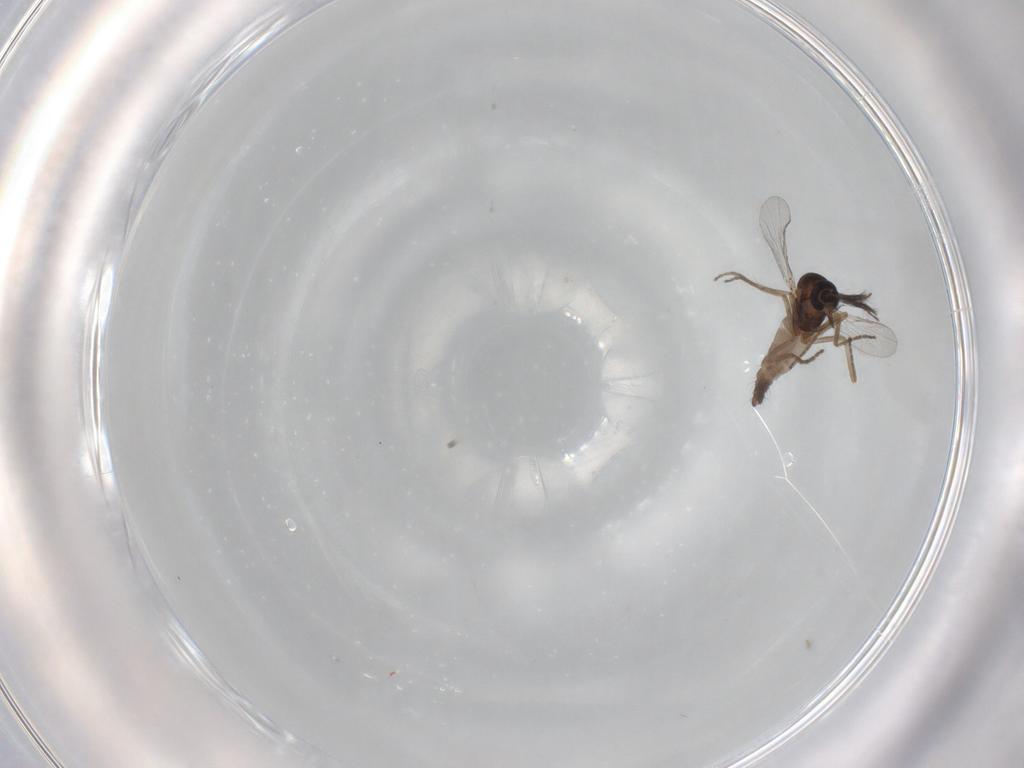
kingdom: Animalia
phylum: Arthropoda
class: Insecta
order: Diptera
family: Ceratopogonidae
